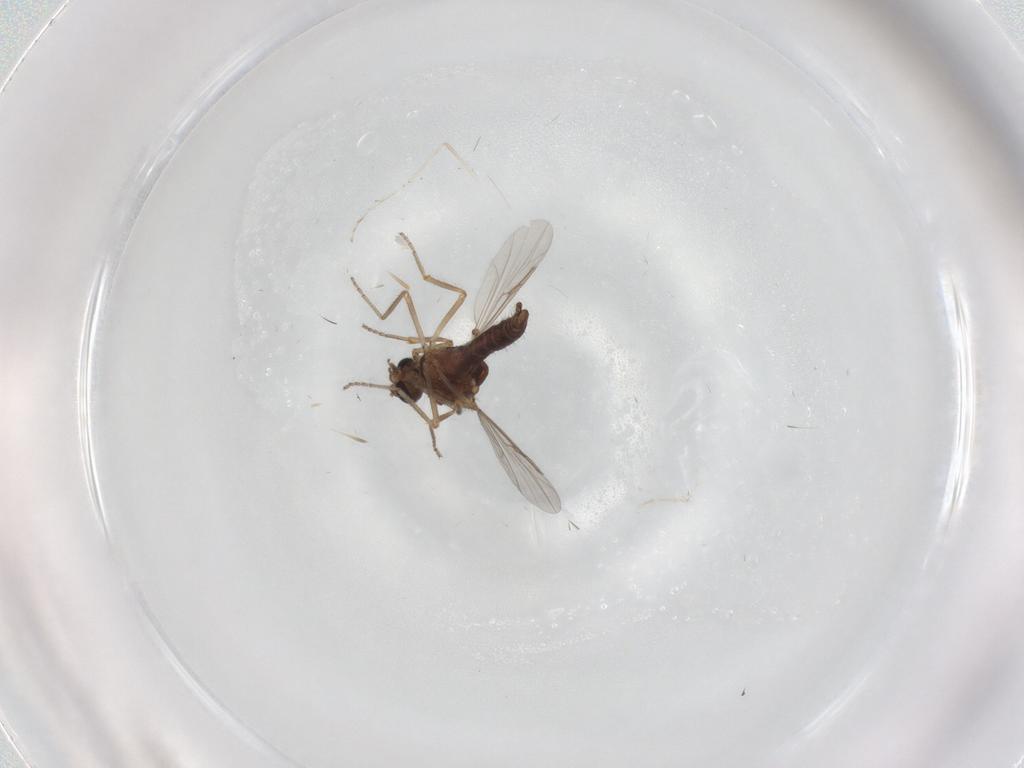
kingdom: Animalia
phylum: Arthropoda
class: Insecta
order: Diptera
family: Ceratopogonidae
